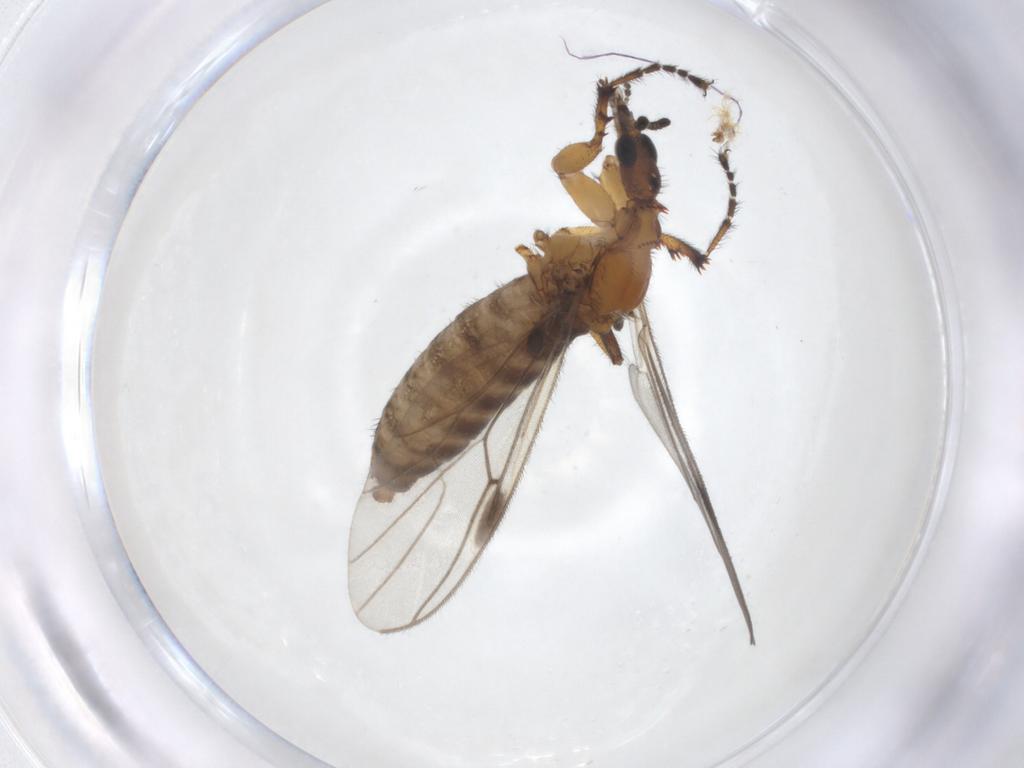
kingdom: Animalia
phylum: Arthropoda
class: Insecta
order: Diptera
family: Bibionidae
